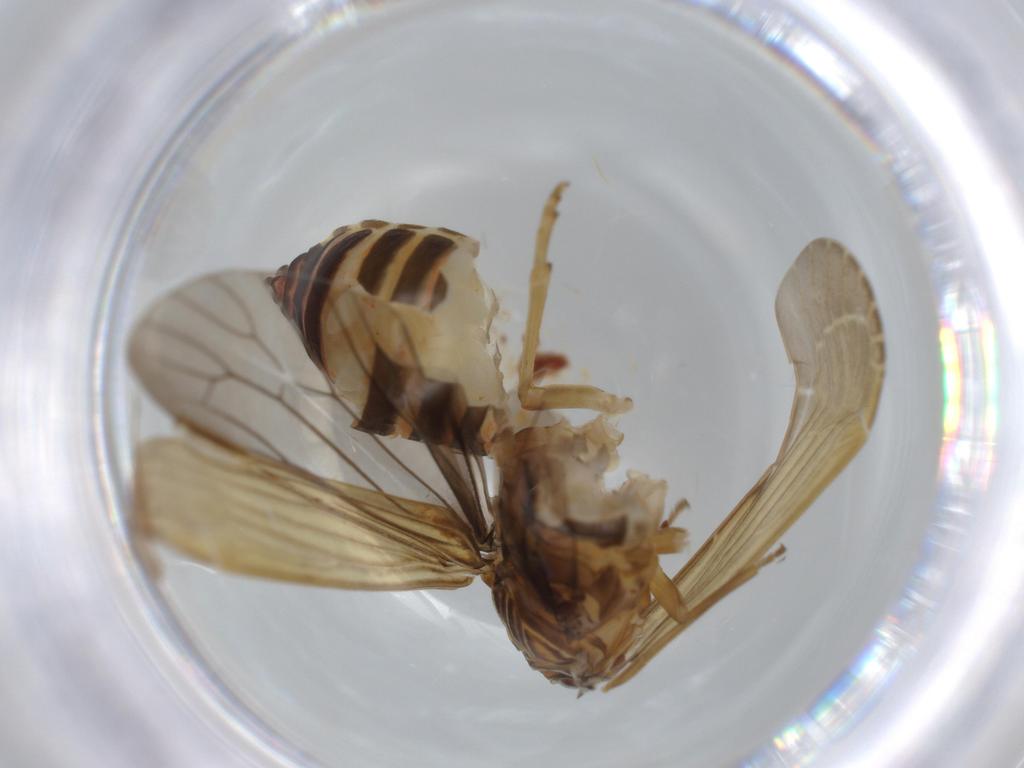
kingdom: Animalia
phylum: Arthropoda
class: Insecta
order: Hemiptera
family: Achilidae
